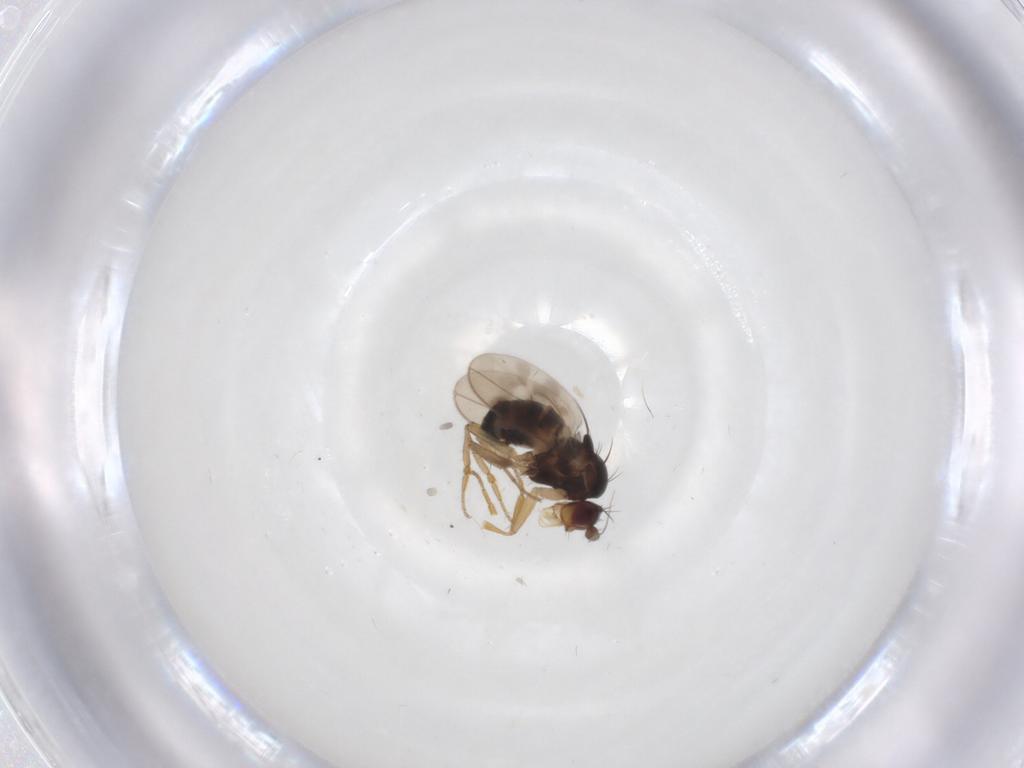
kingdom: Animalia
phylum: Arthropoda
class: Insecta
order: Diptera
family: Sphaeroceridae
